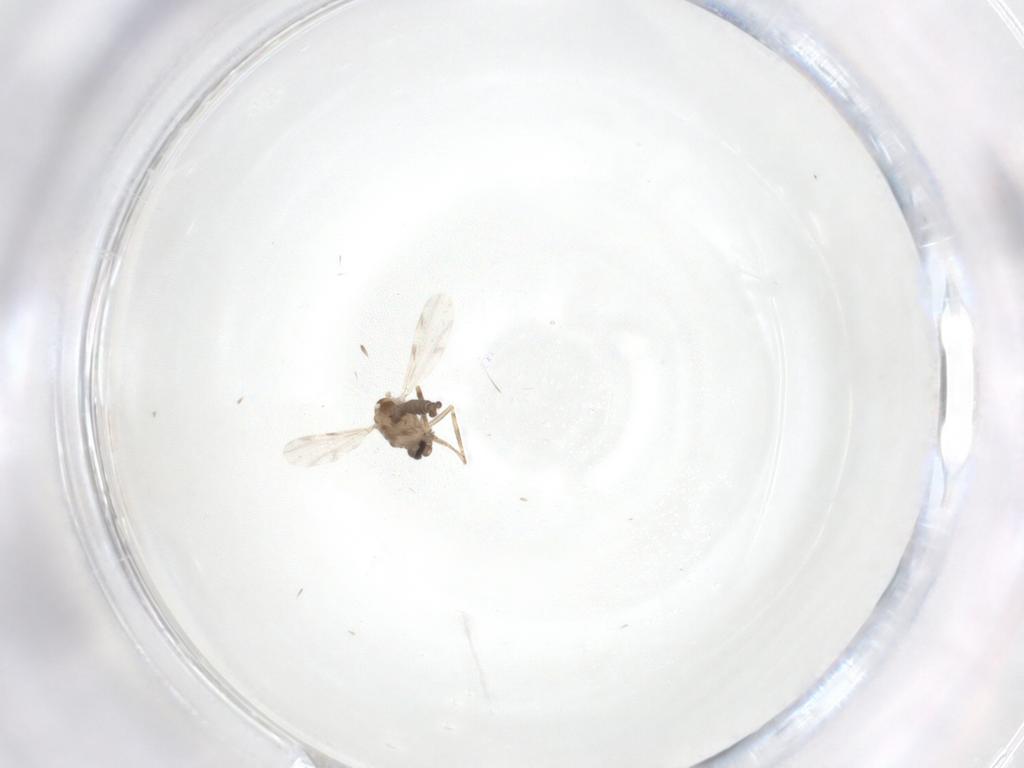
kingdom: Animalia
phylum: Arthropoda
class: Insecta
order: Diptera
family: Ceratopogonidae
